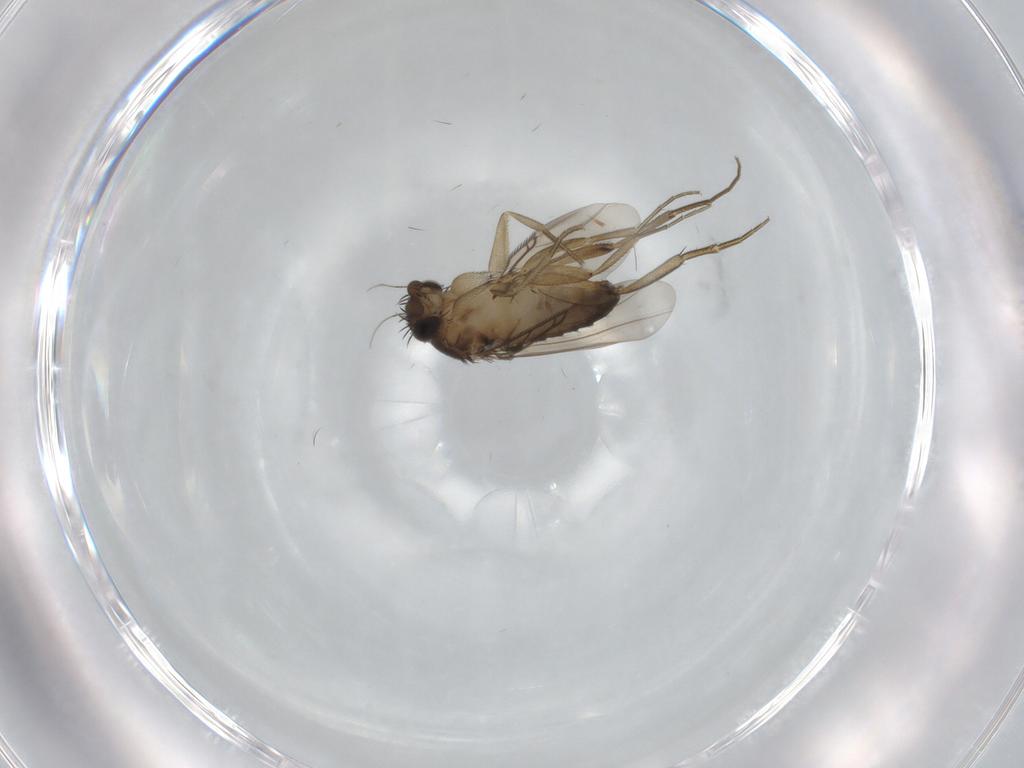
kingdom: Animalia
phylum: Arthropoda
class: Insecta
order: Diptera
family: Phoridae
